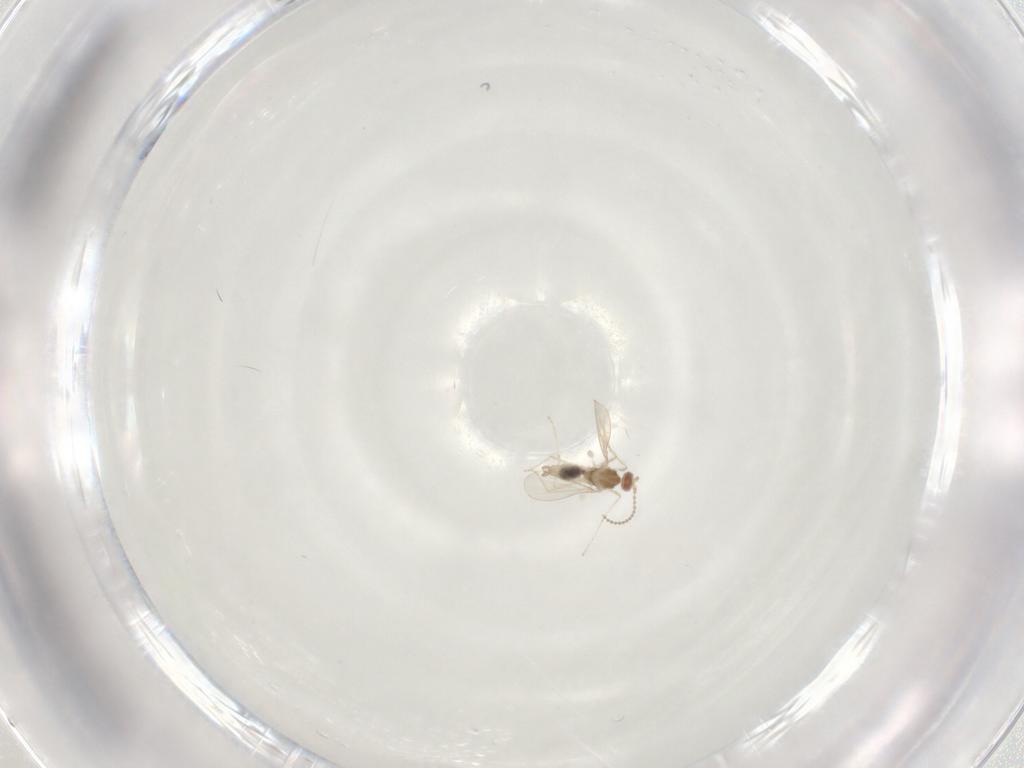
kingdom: Animalia
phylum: Arthropoda
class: Insecta
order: Diptera
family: Cecidomyiidae
